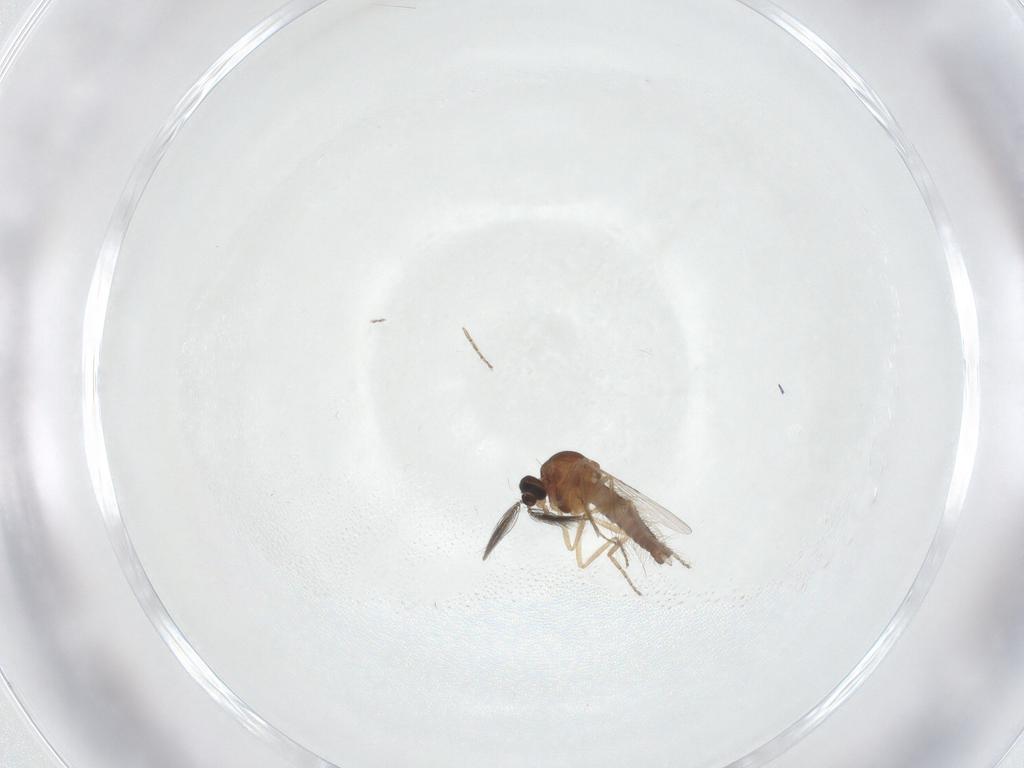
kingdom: Animalia
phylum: Arthropoda
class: Insecta
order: Diptera
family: Ceratopogonidae
